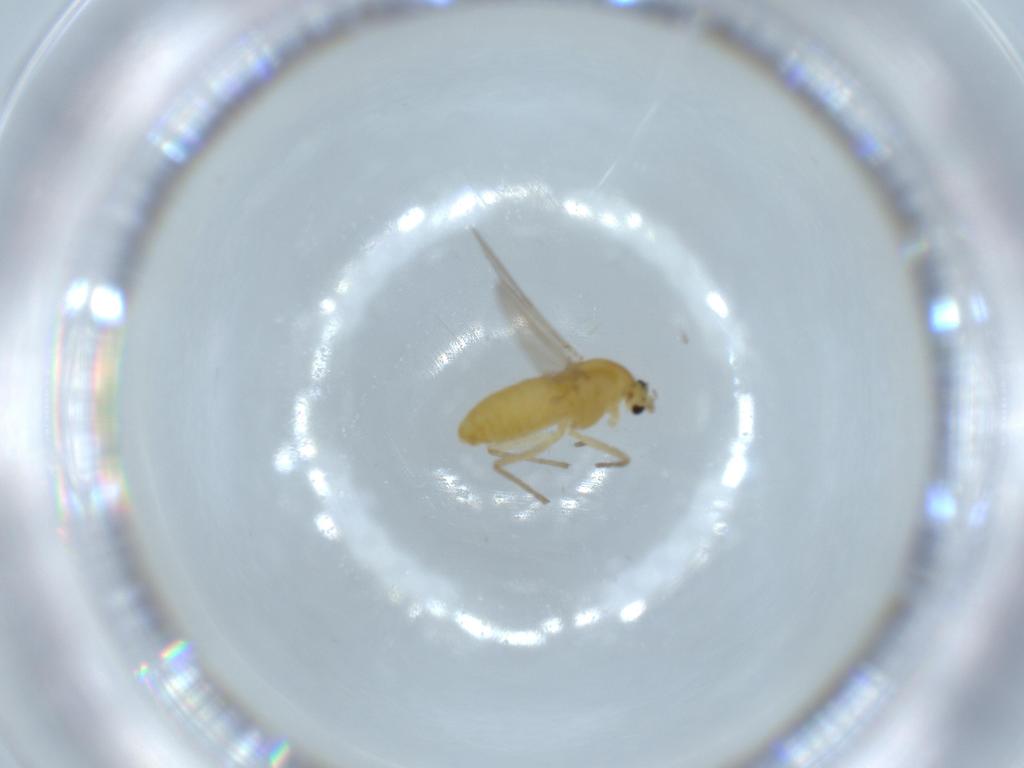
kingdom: Animalia
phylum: Arthropoda
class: Insecta
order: Diptera
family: Chironomidae
